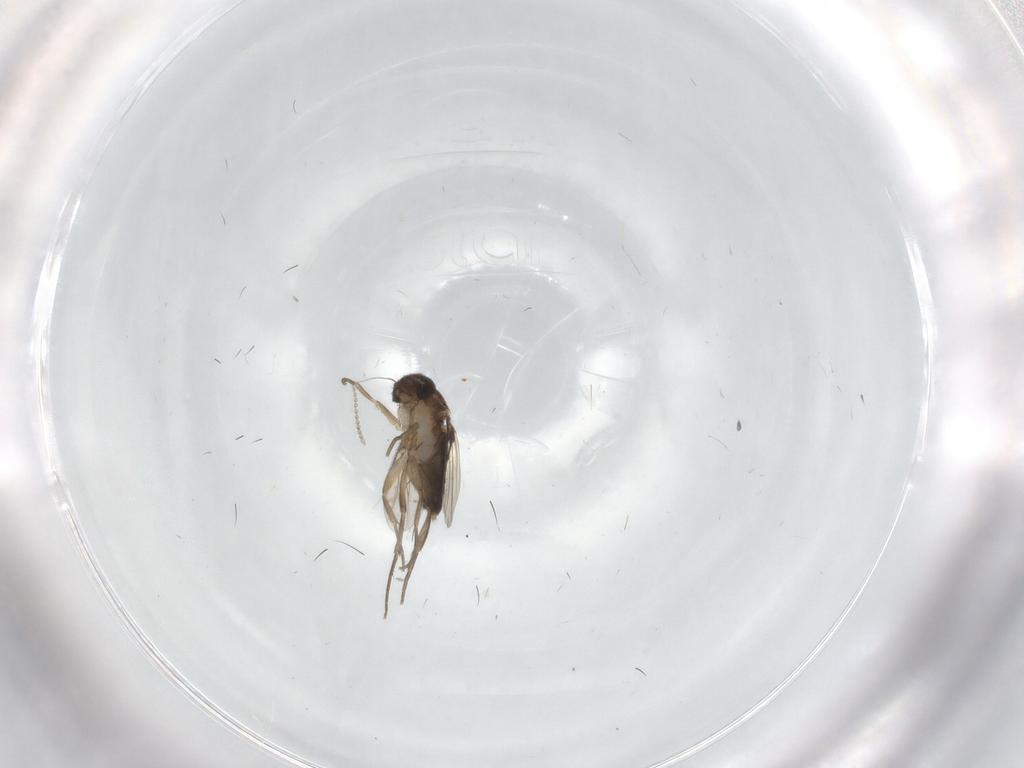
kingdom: Animalia
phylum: Arthropoda
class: Insecta
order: Diptera
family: Cecidomyiidae
